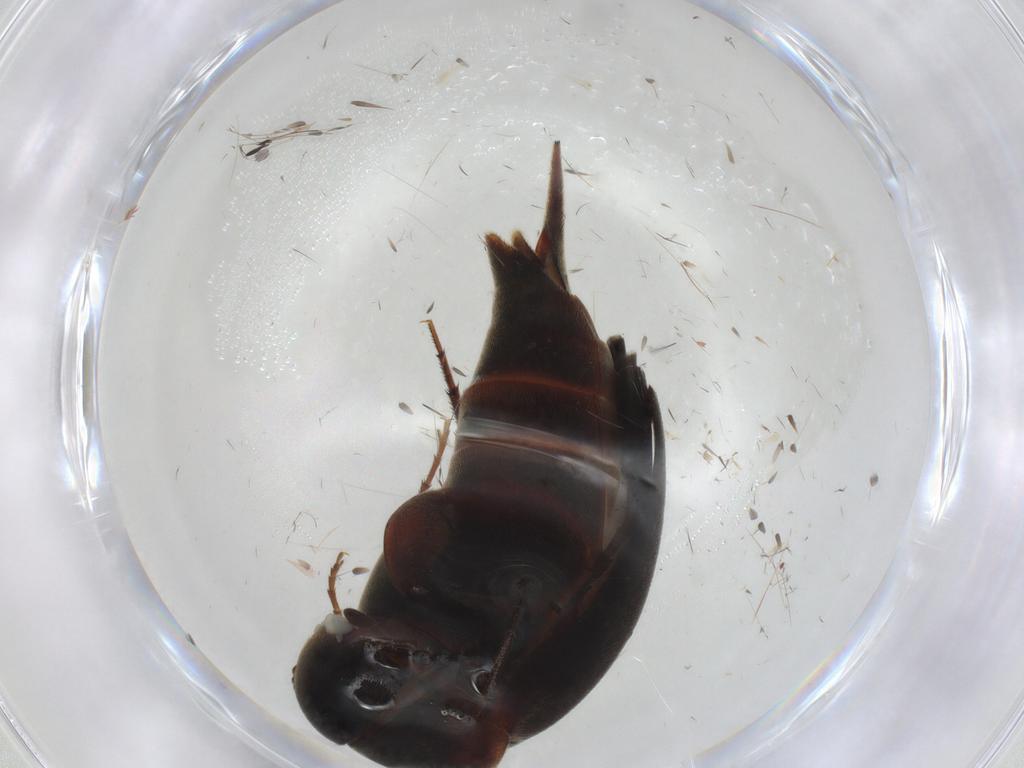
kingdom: Animalia
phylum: Arthropoda
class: Insecta
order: Coleoptera
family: Mordellidae
